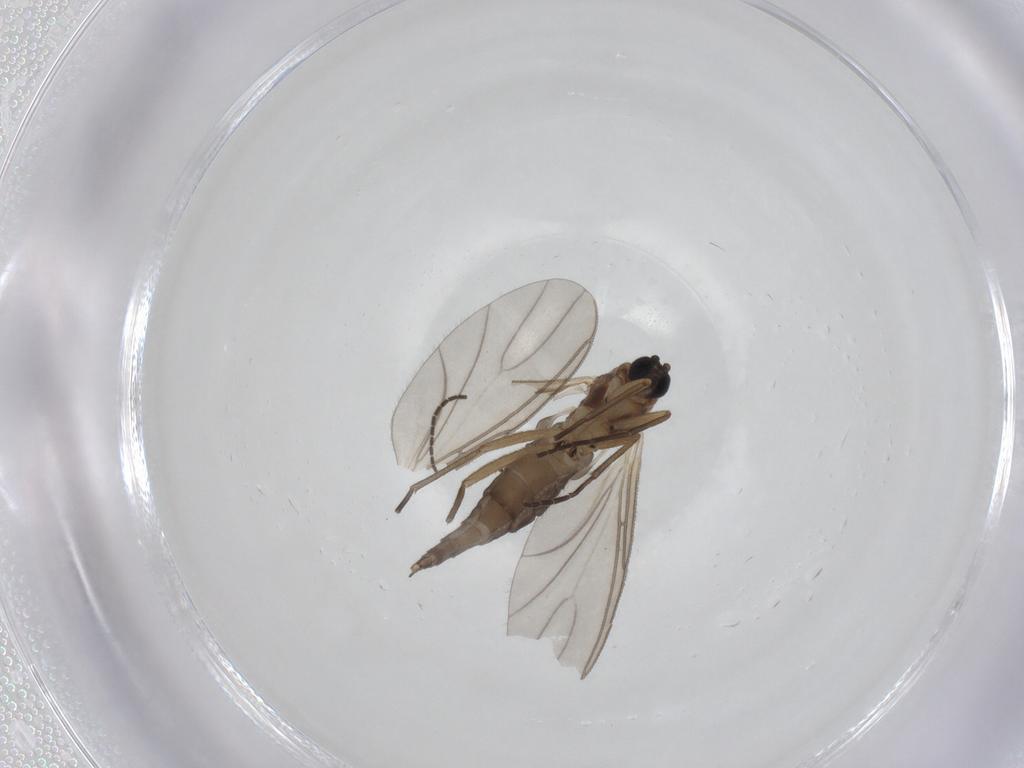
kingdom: Animalia
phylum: Arthropoda
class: Insecta
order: Diptera
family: Sciaridae
